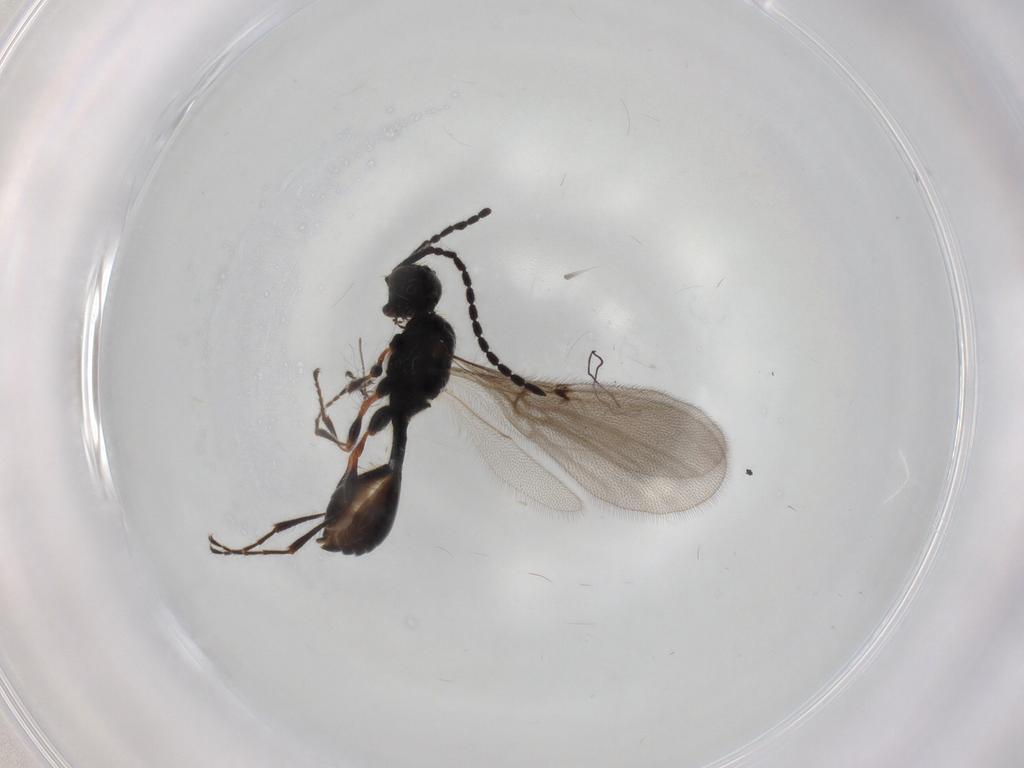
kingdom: Animalia
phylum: Arthropoda
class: Insecta
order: Hymenoptera
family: Diapriidae
